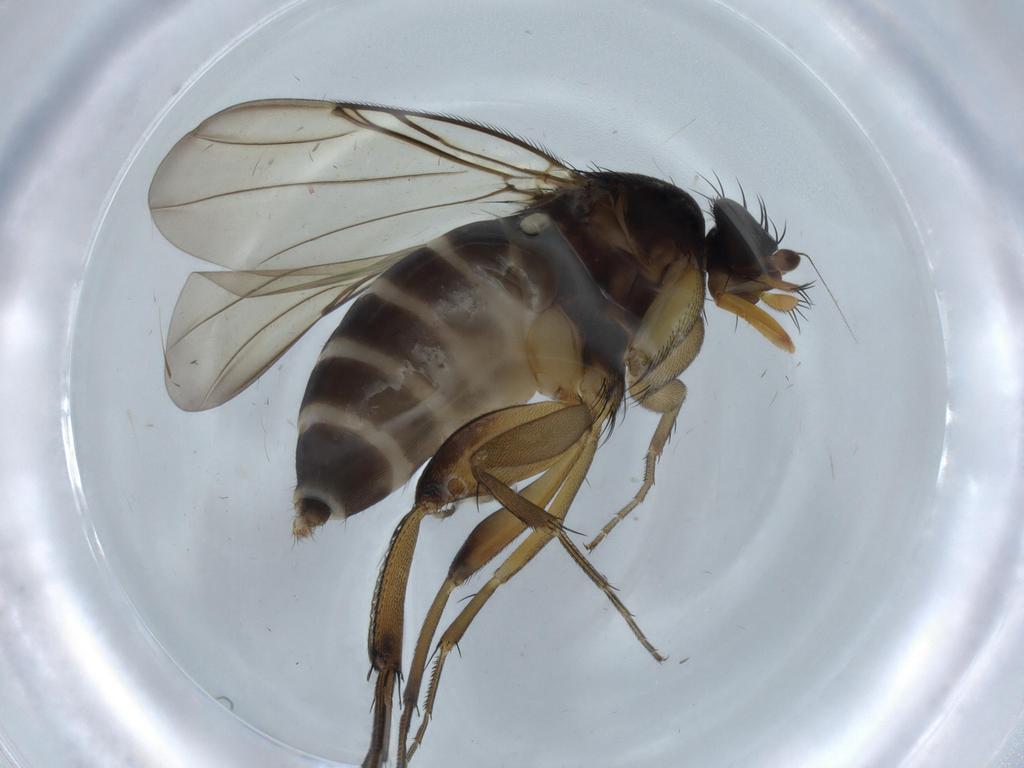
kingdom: Animalia
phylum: Arthropoda
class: Insecta
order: Diptera
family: Phoridae
